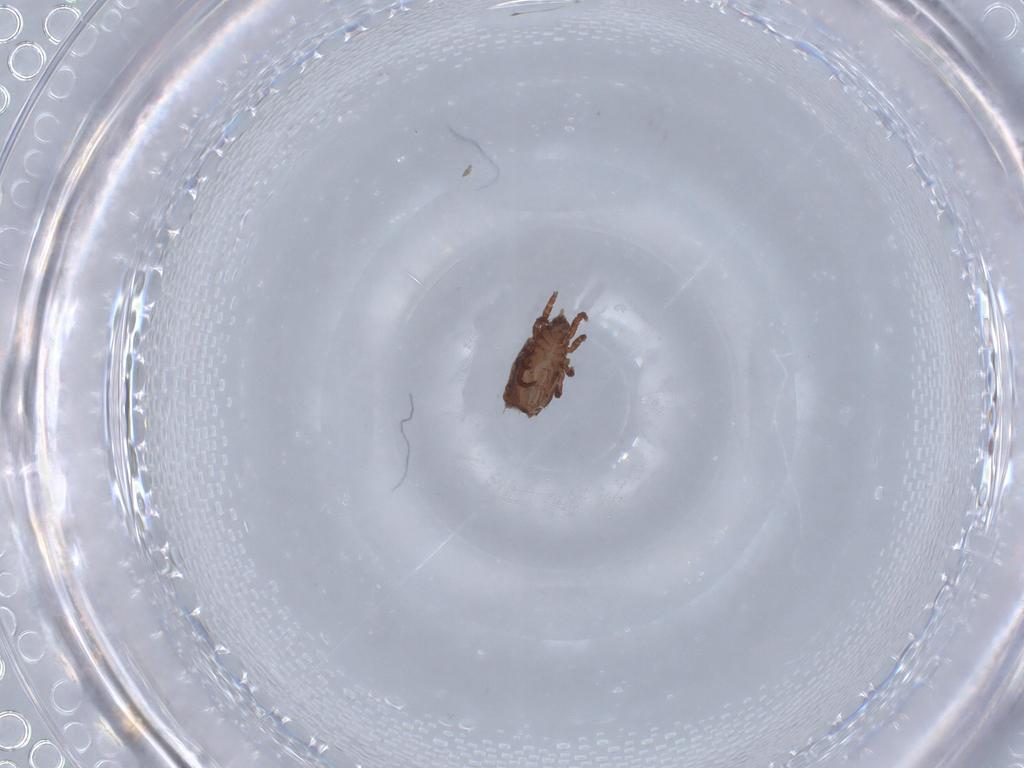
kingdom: Animalia
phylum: Arthropoda
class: Arachnida
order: Sarcoptiformes
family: Crotoniidae
